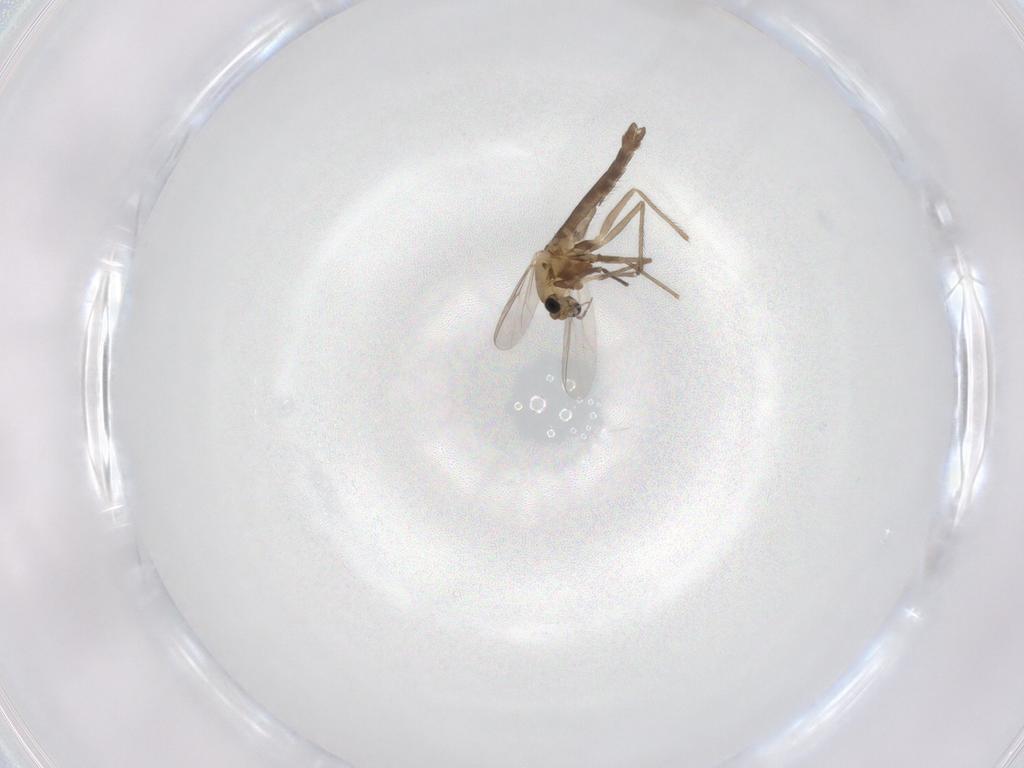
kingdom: Animalia
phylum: Arthropoda
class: Insecta
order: Diptera
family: Chironomidae
